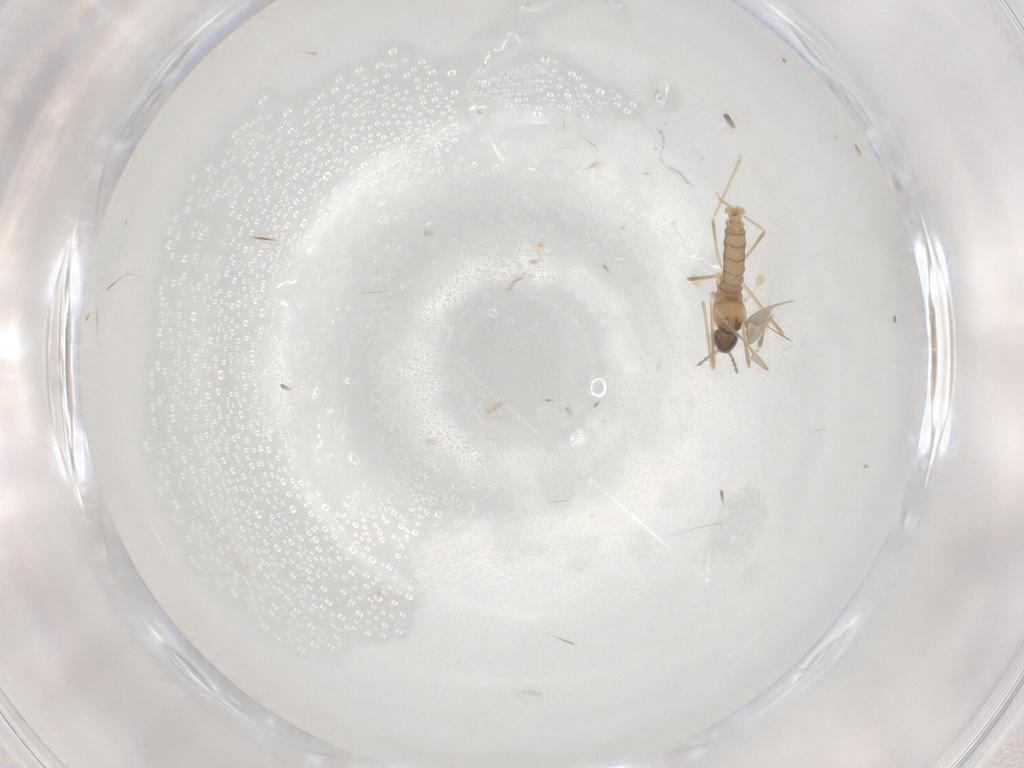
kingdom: Animalia
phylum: Arthropoda
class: Insecta
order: Diptera
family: Cecidomyiidae
